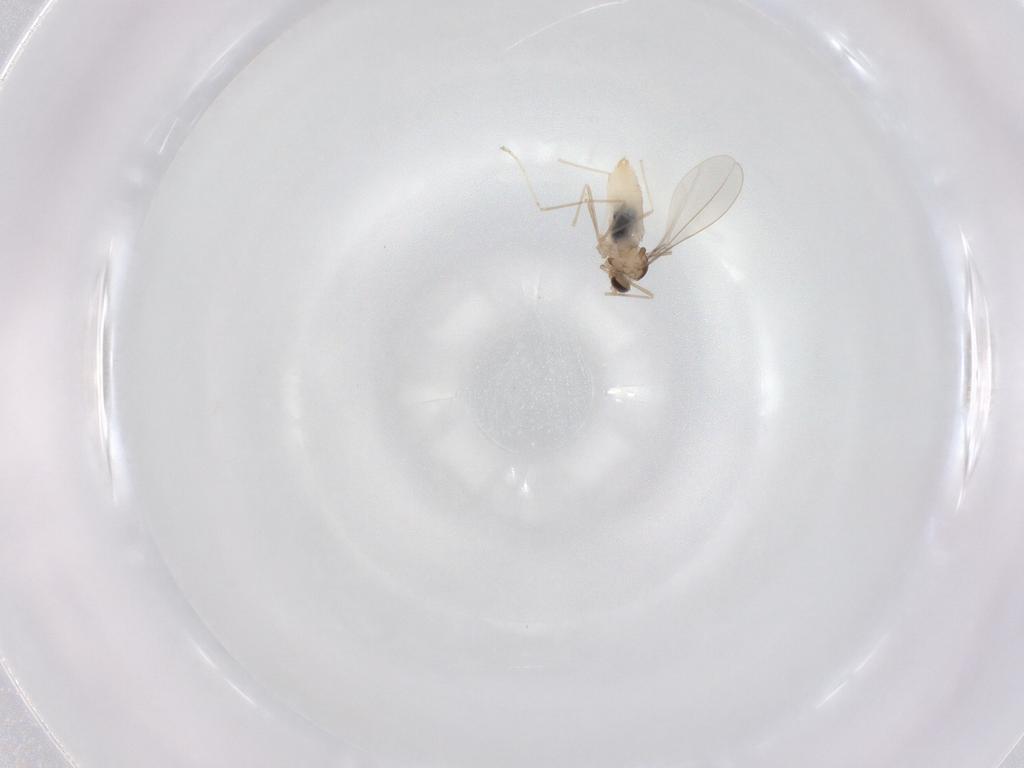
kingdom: Animalia
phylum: Arthropoda
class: Insecta
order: Diptera
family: Cecidomyiidae
